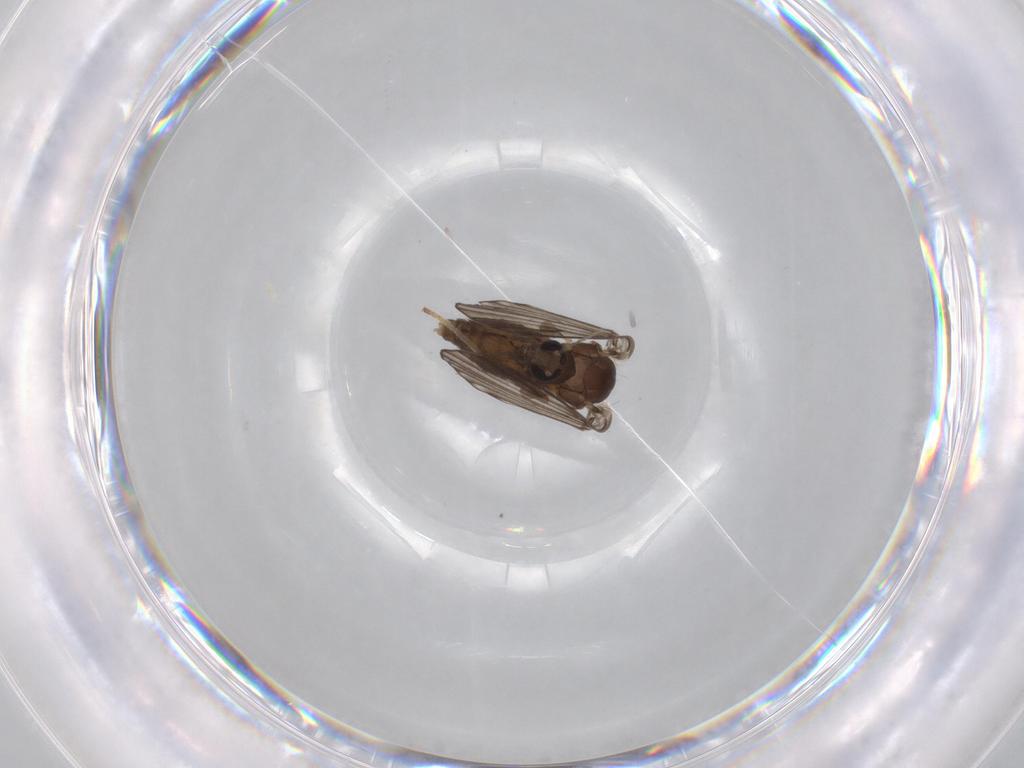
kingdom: Animalia
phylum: Arthropoda
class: Insecta
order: Diptera
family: Psychodidae
